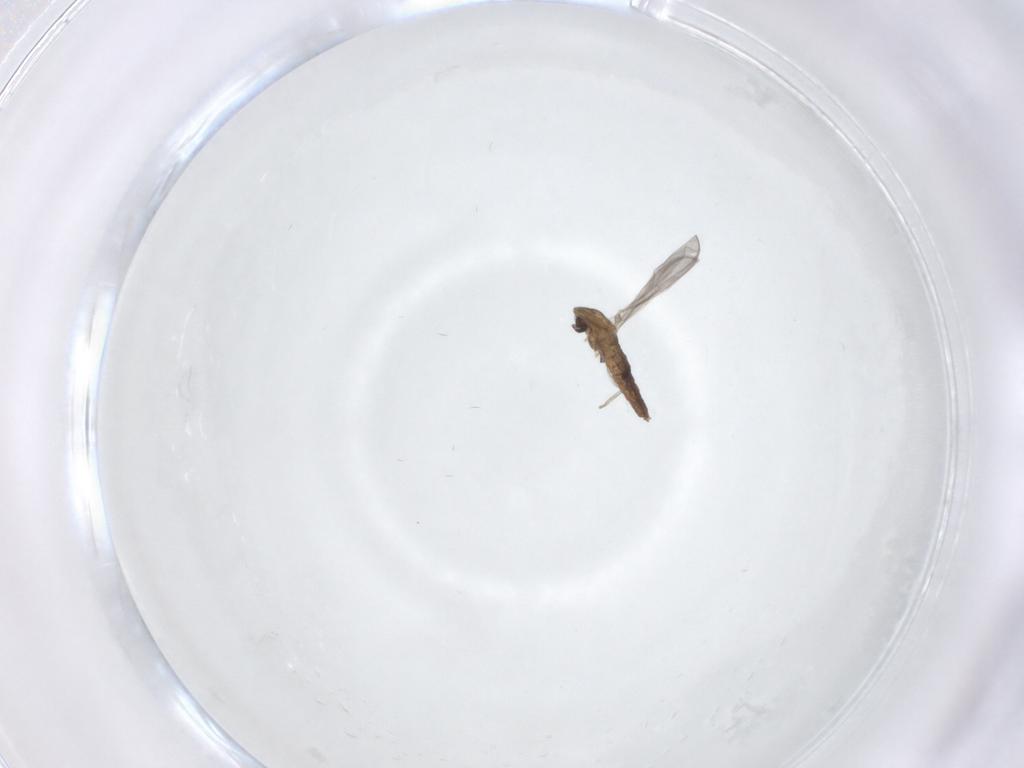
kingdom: Animalia
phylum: Arthropoda
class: Insecta
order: Diptera
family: Chironomidae
